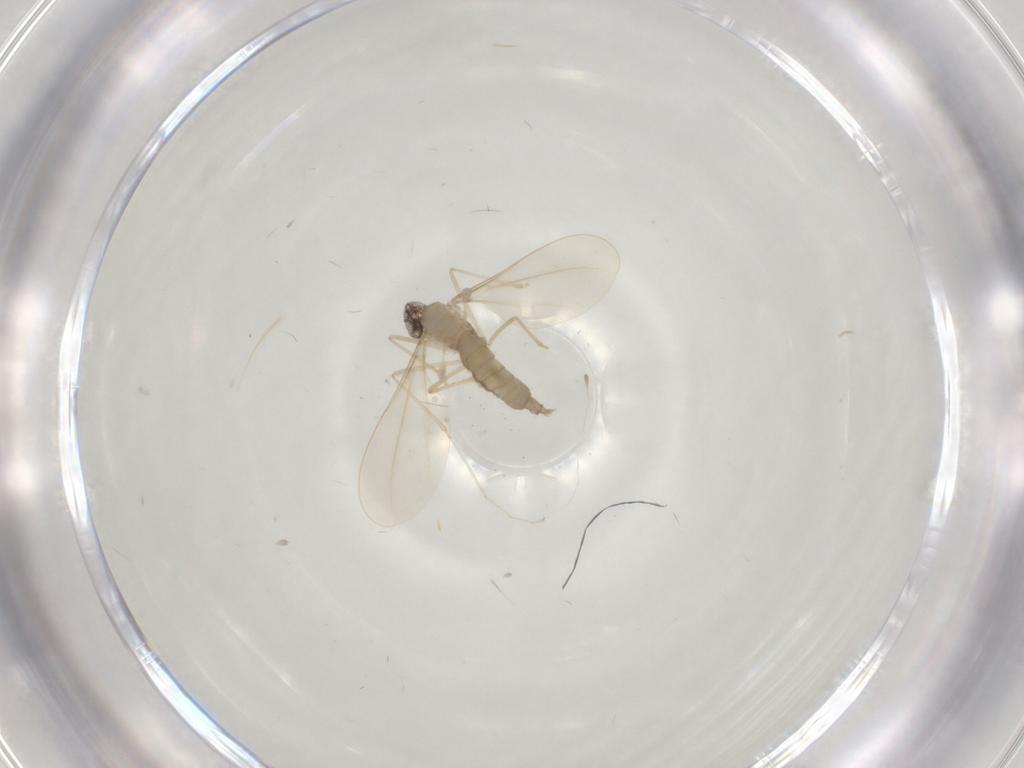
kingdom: Animalia
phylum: Arthropoda
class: Insecta
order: Diptera
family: Cecidomyiidae
